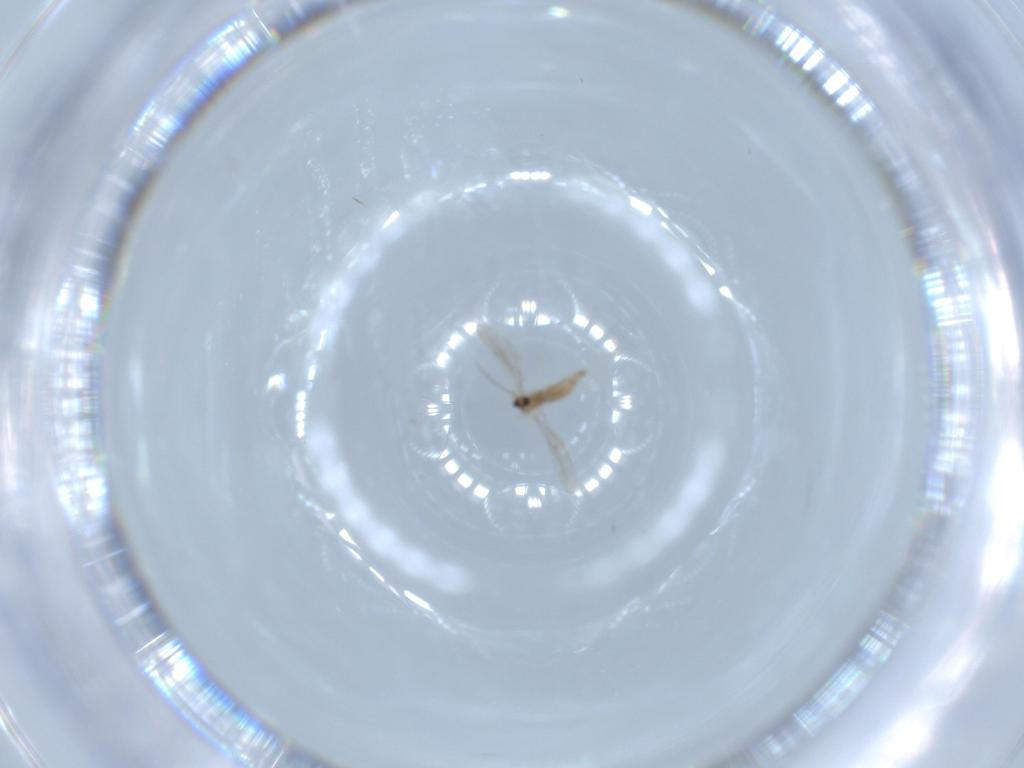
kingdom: Animalia
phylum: Arthropoda
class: Insecta
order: Diptera
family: Cecidomyiidae
